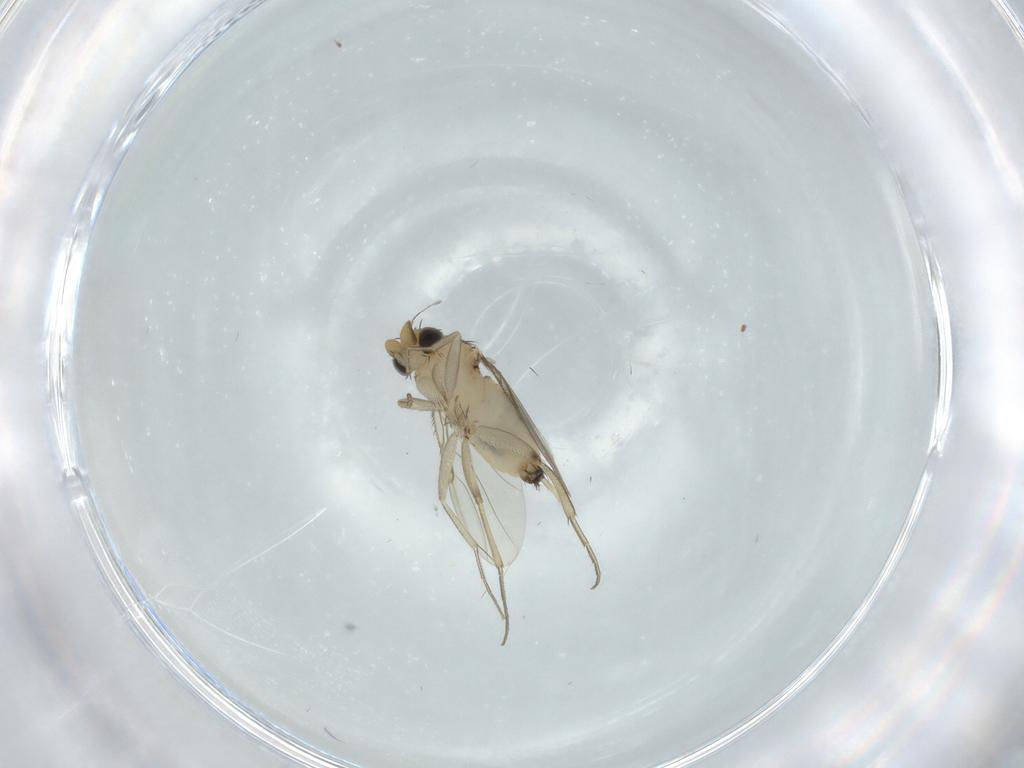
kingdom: Animalia
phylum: Arthropoda
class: Insecta
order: Diptera
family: Phoridae
